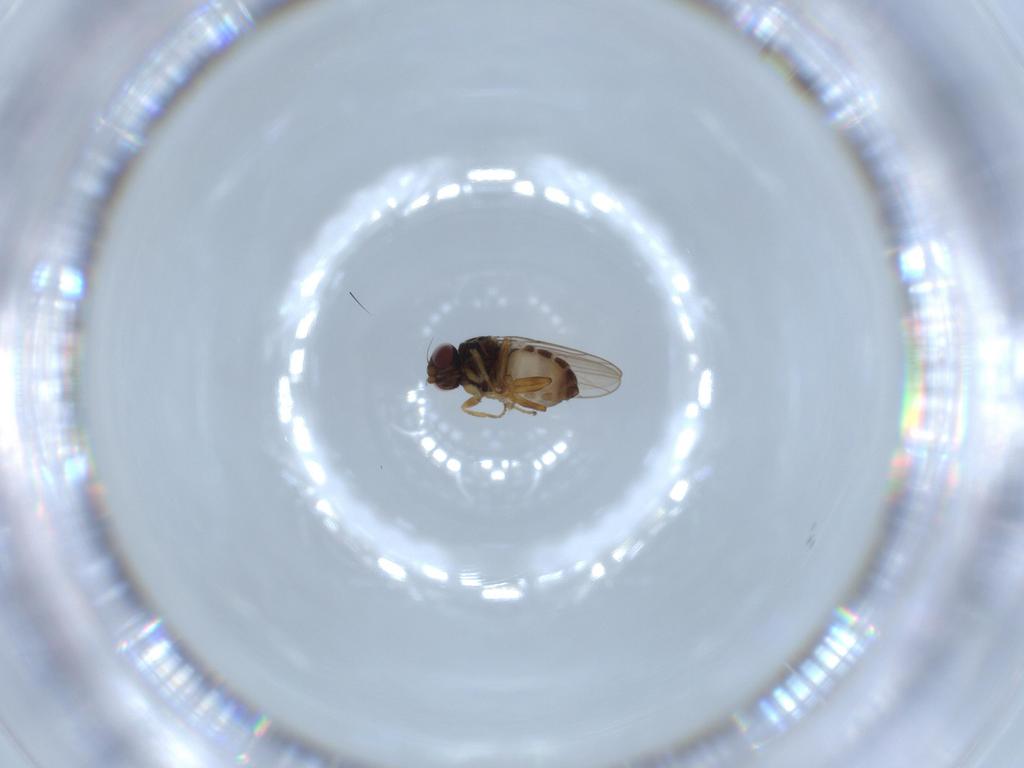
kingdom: Animalia
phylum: Arthropoda
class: Insecta
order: Diptera
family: Chloropidae
